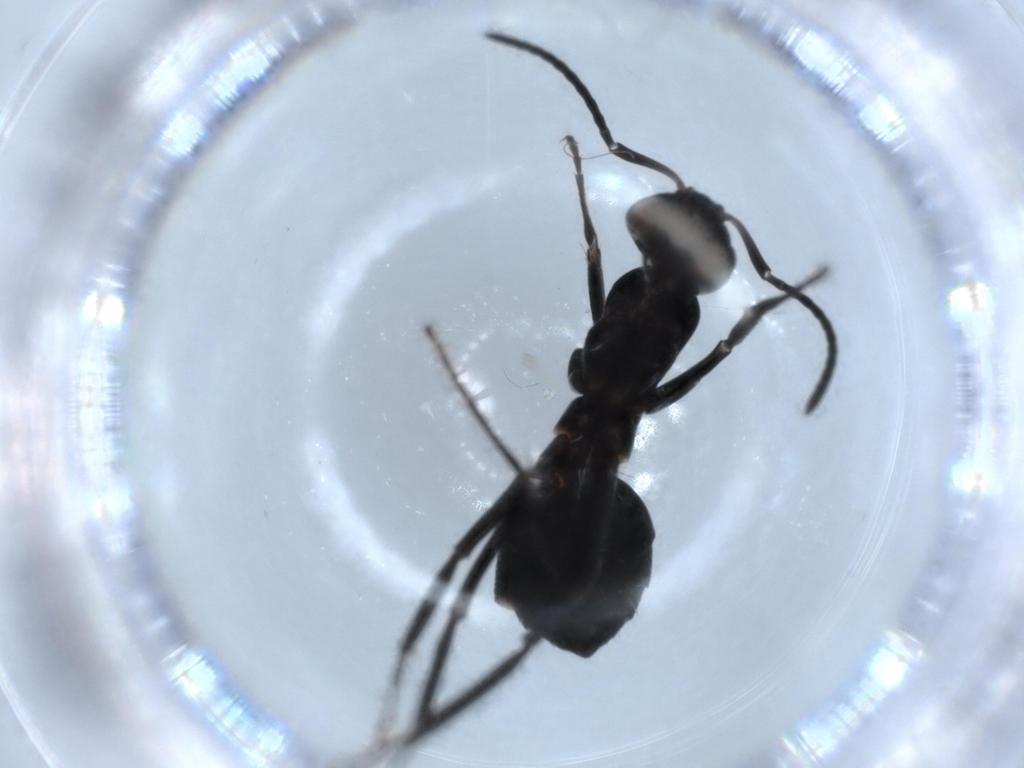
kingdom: Animalia
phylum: Arthropoda
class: Insecta
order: Hymenoptera
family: Formicidae
